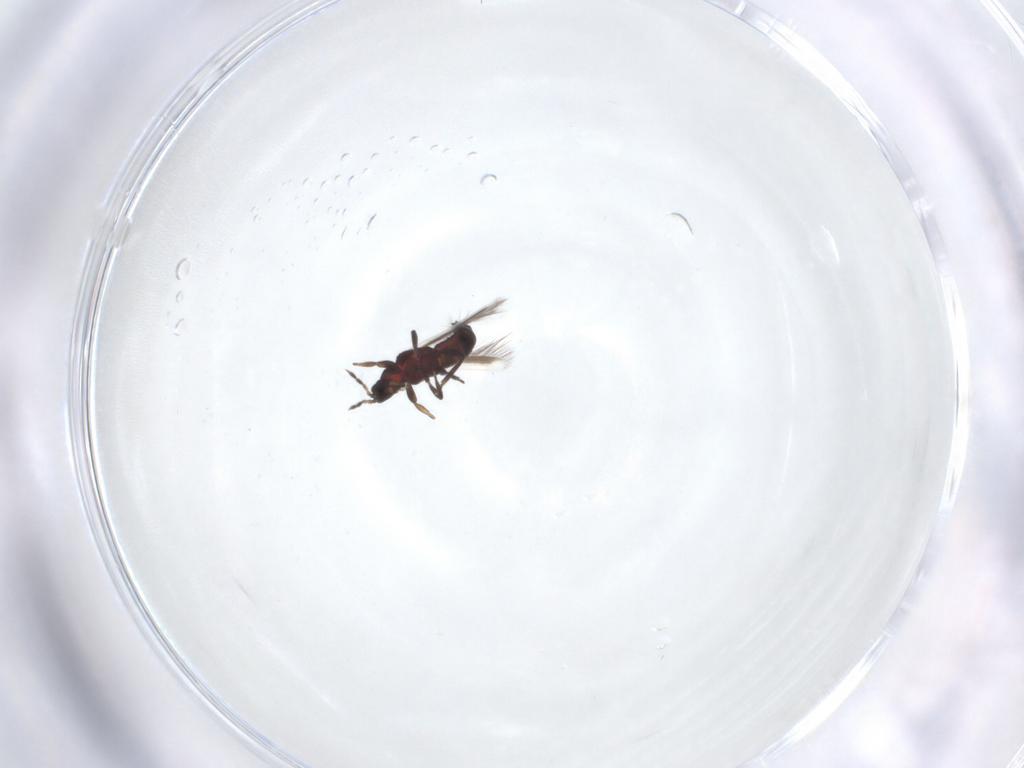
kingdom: Animalia
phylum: Arthropoda
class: Insecta
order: Thysanoptera
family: Aeolothripidae
